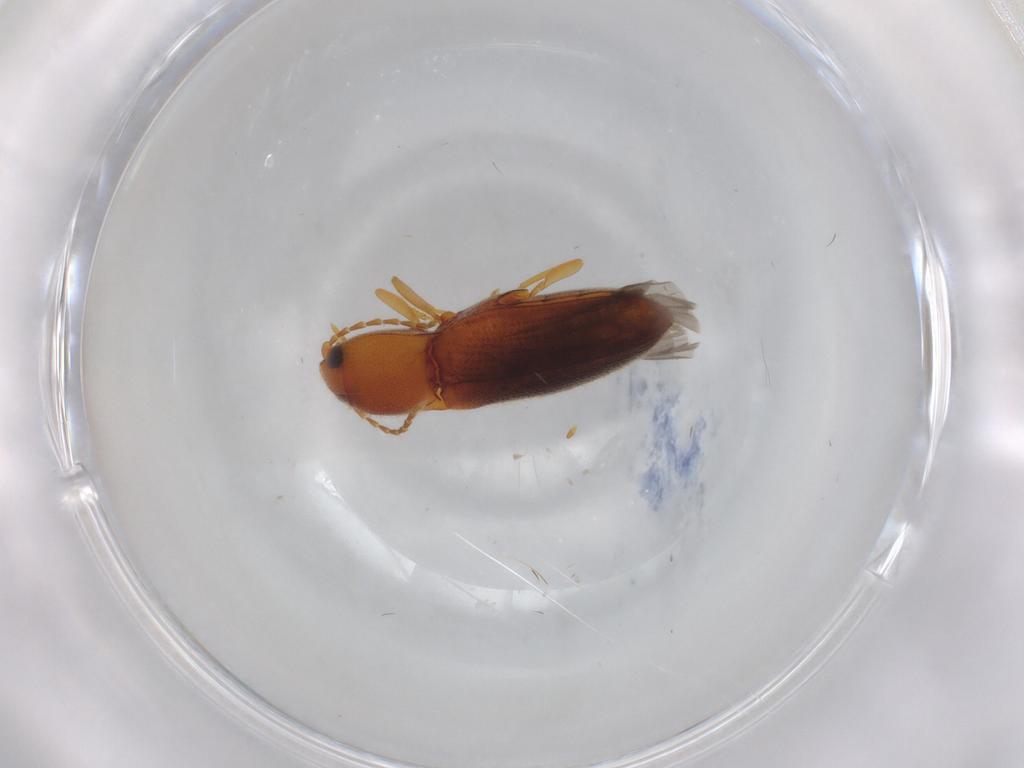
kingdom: Animalia
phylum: Arthropoda
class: Insecta
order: Coleoptera
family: Elateridae
